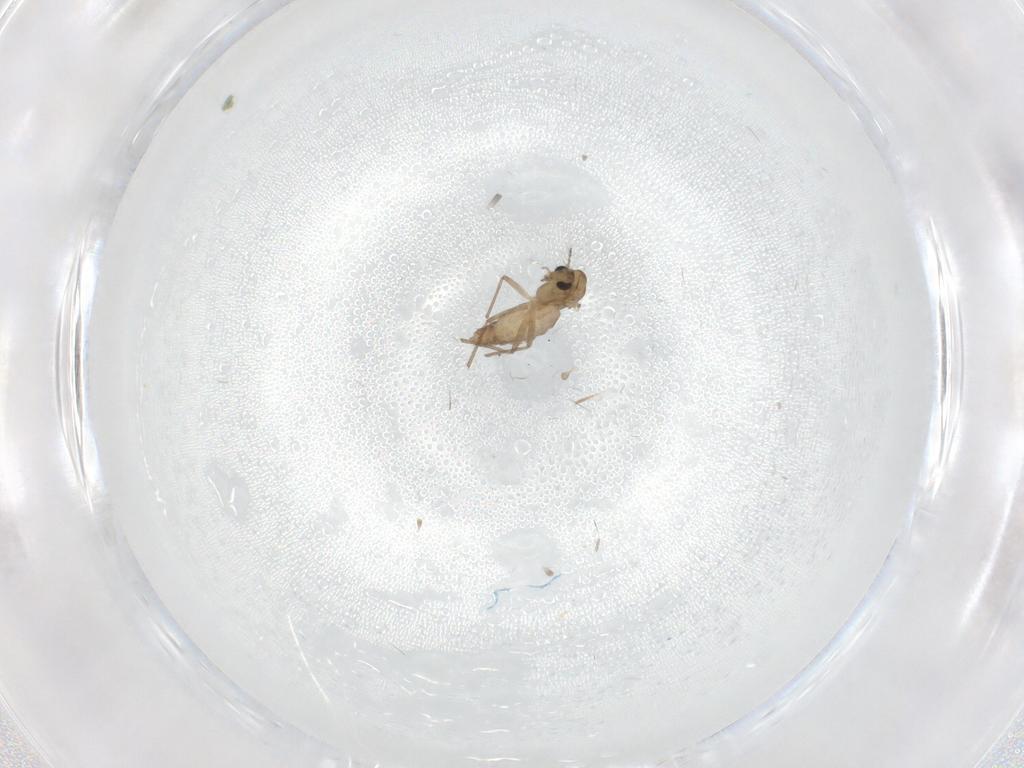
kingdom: Animalia
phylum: Arthropoda
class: Insecta
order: Diptera
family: Chironomidae
